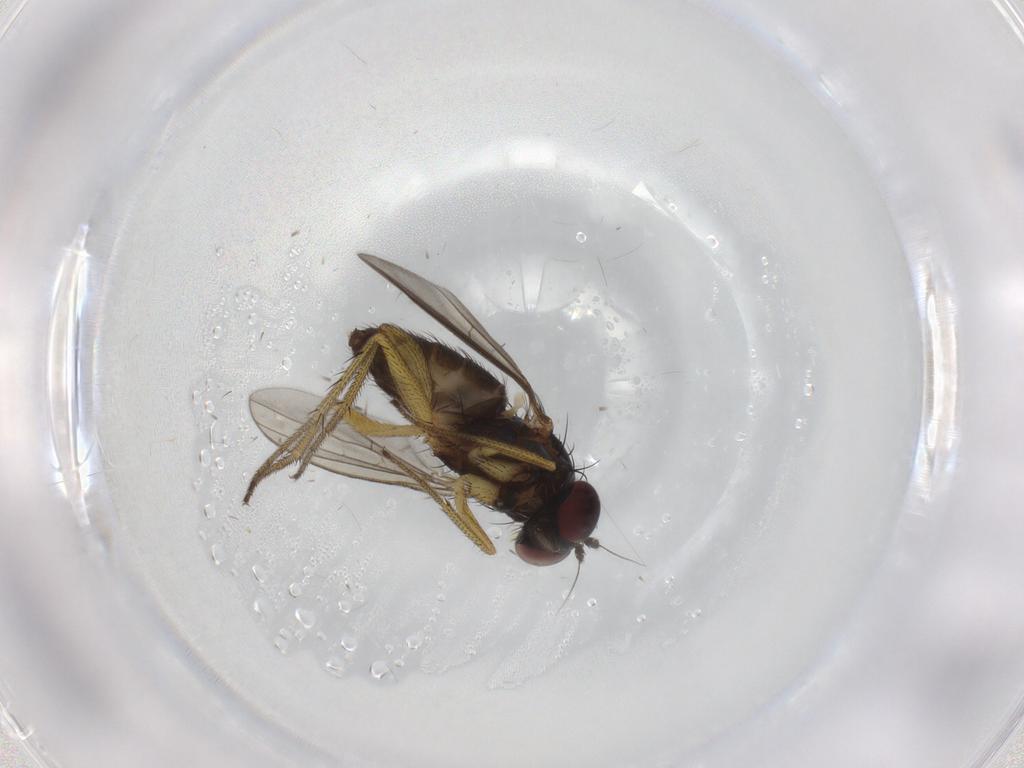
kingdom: Animalia
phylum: Arthropoda
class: Insecta
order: Diptera
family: Dolichopodidae
